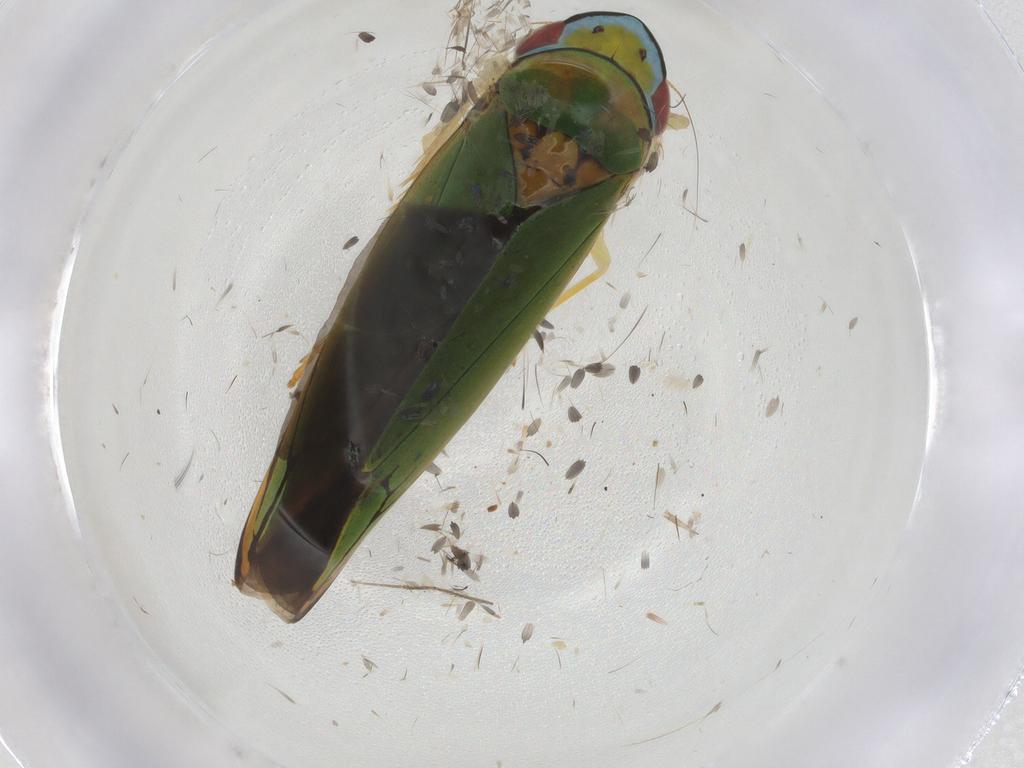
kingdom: Animalia
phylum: Arthropoda
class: Insecta
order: Hemiptera
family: Cicadellidae
